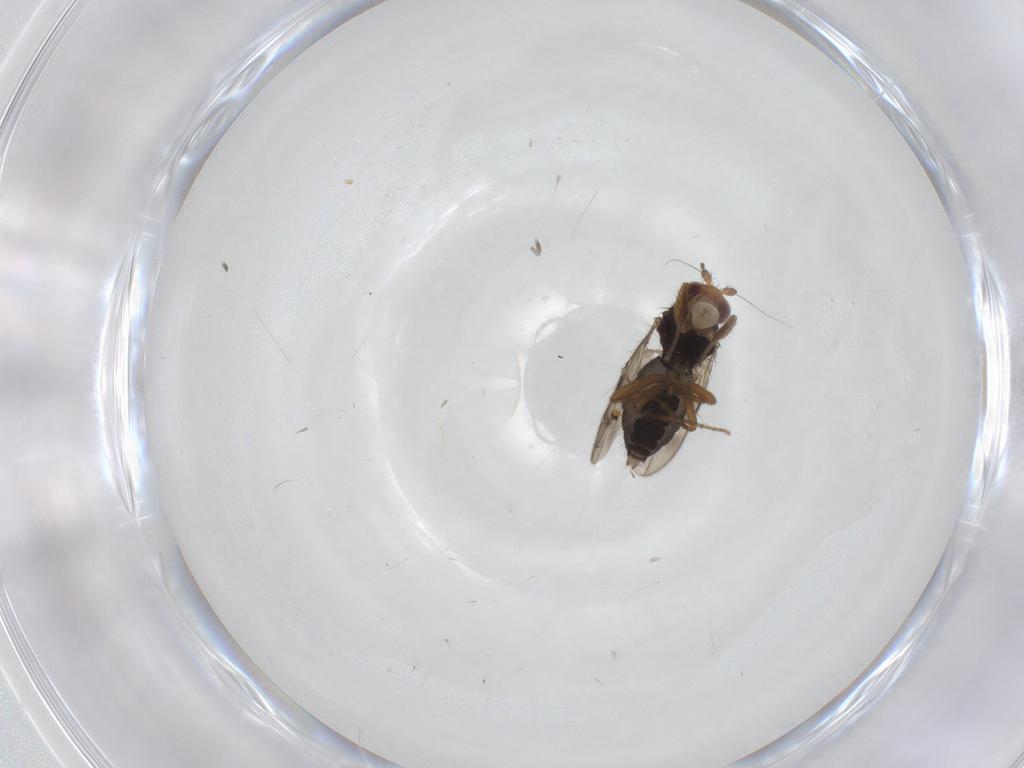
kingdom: Animalia
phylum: Arthropoda
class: Insecta
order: Diptera
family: Sphaeroceridae
